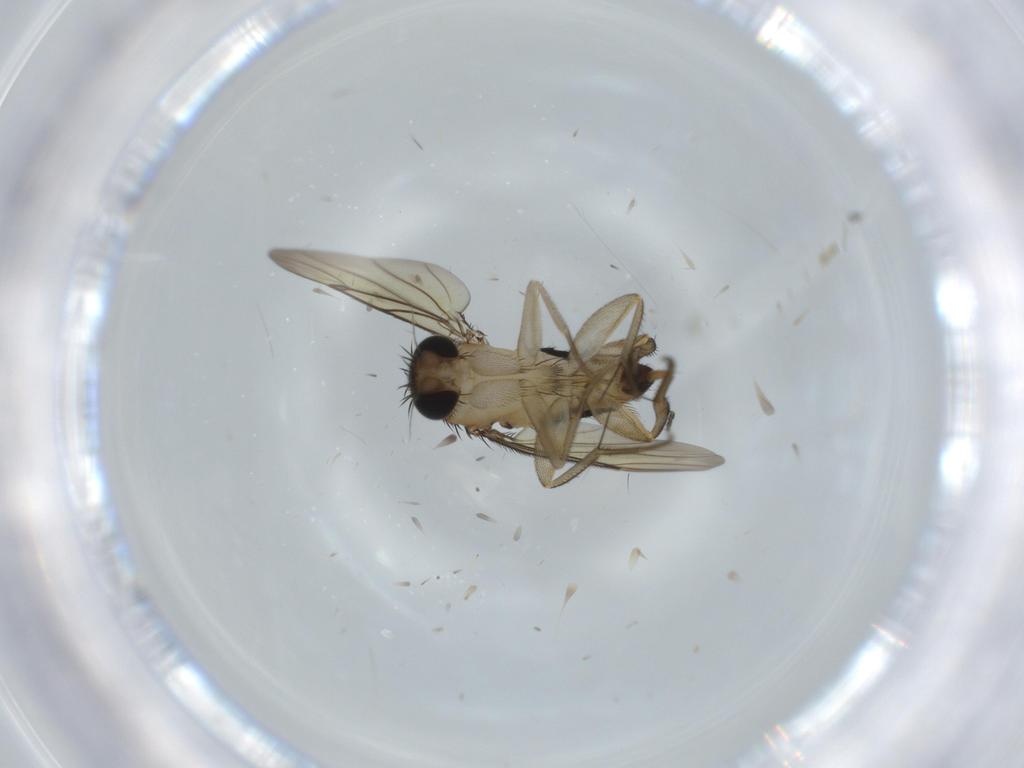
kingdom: Animalia
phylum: Arthropoda
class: Insecta
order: Diptera
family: Phoridae
